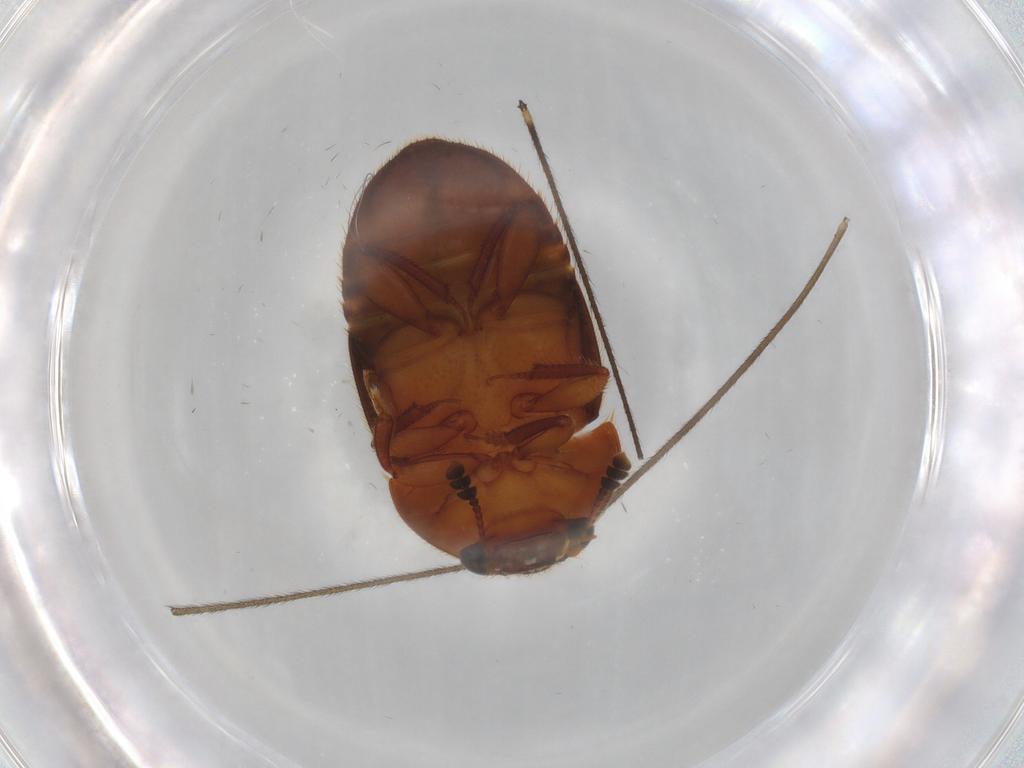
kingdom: Animalia
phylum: Arthropoda
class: Insecta
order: Coleoptera
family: Nitidulidae
